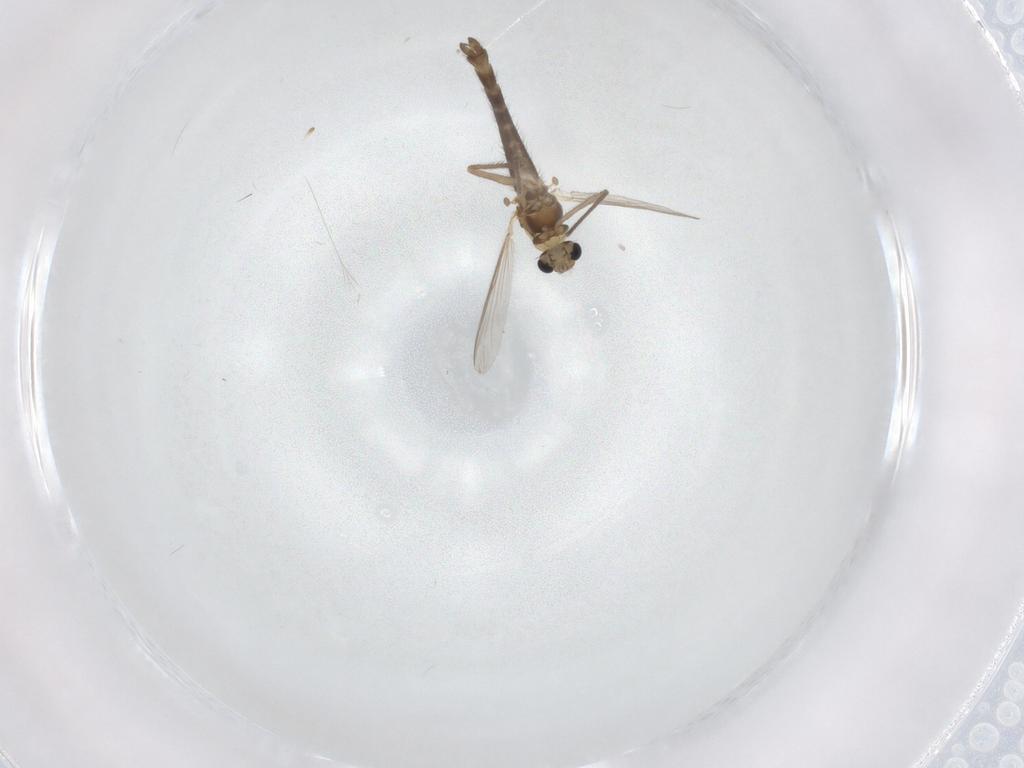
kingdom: Animalia
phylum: Arthropoda
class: Insecta
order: Diptera
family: Chironomidae
